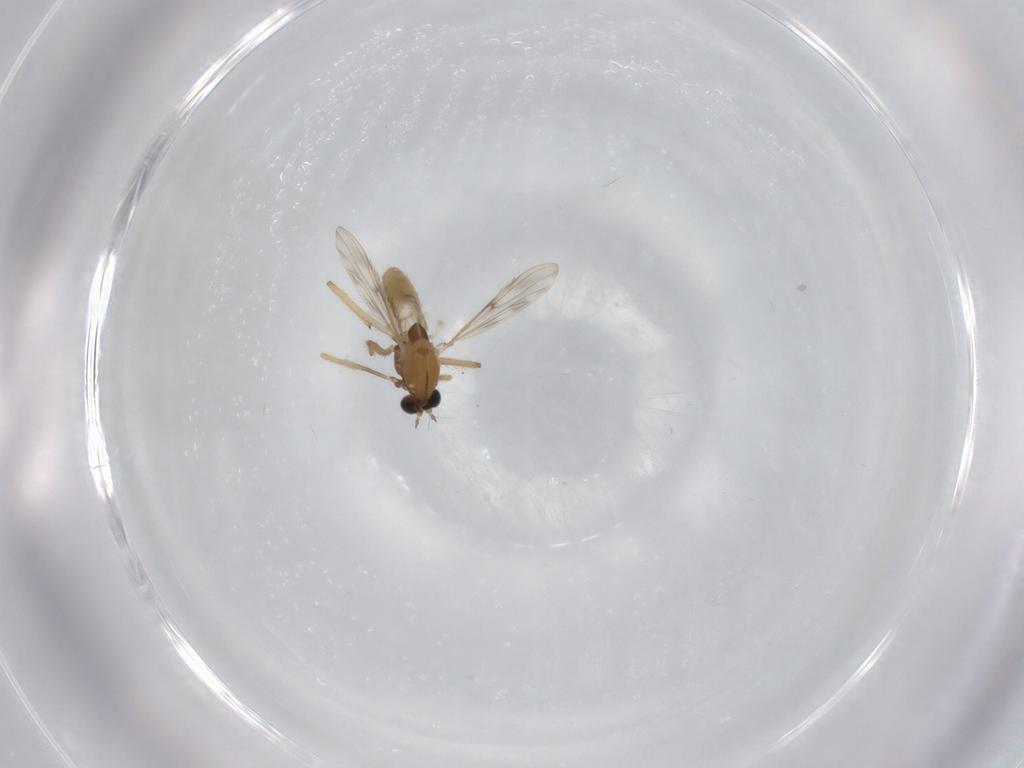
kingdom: Animalia
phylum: Arthropoda
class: Insecta
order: Diptera
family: Chironomidae
